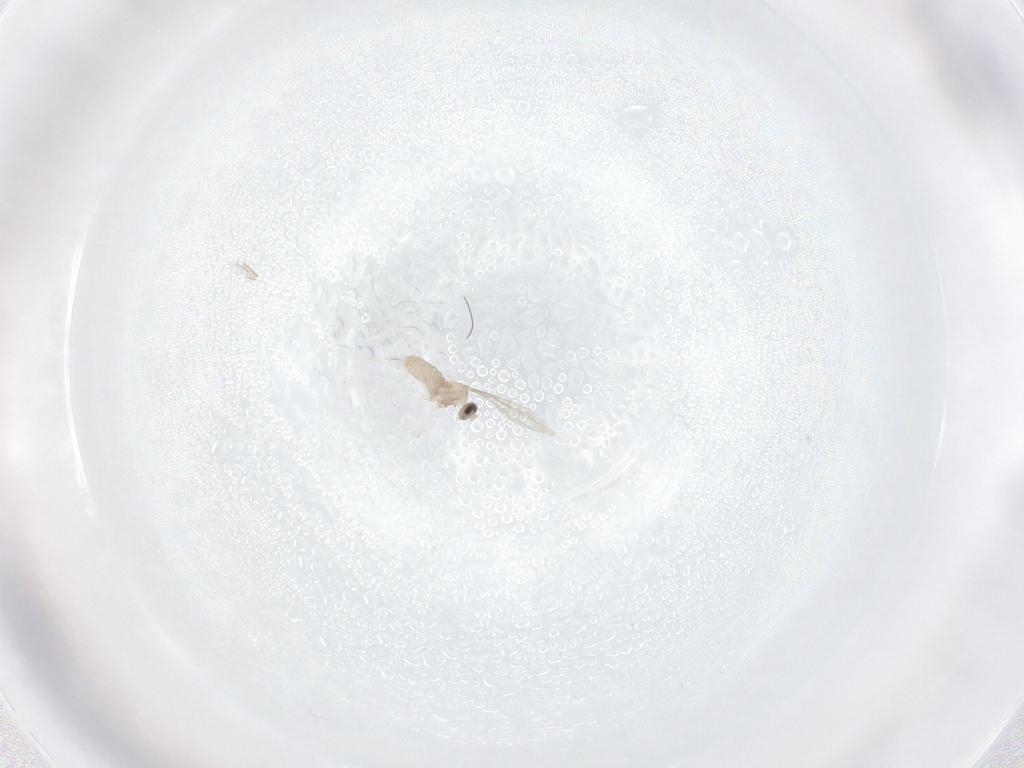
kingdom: Animalia
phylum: Arthropoda
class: Insecta
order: Diptera
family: Cecidomyiidae
